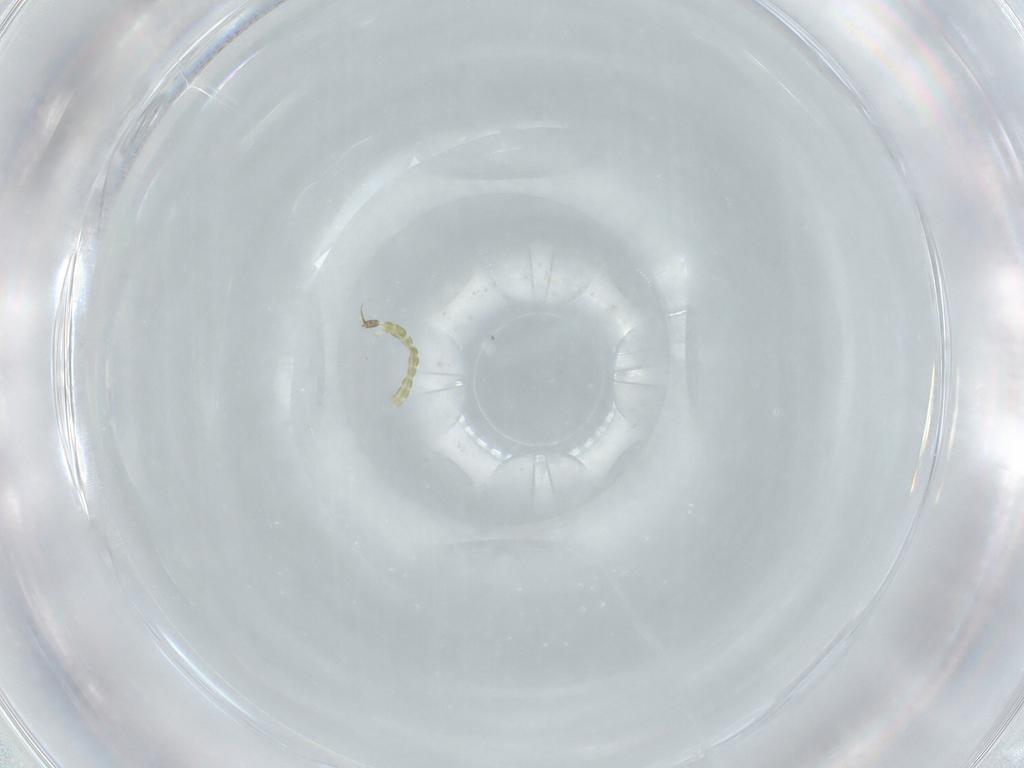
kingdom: Animalia
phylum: Arthropoda
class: Insecta
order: Diptera
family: Chironomidae
